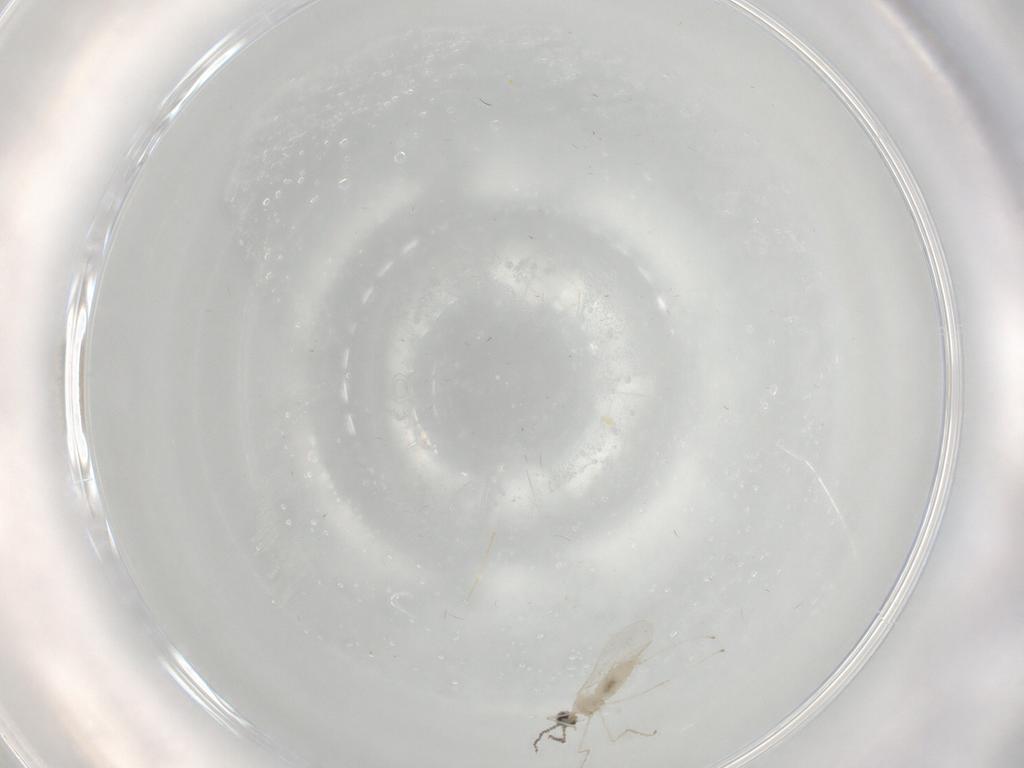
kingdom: Animalia
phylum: Arthropoda
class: Insecta
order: Diptera
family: Cecidomyiidae
